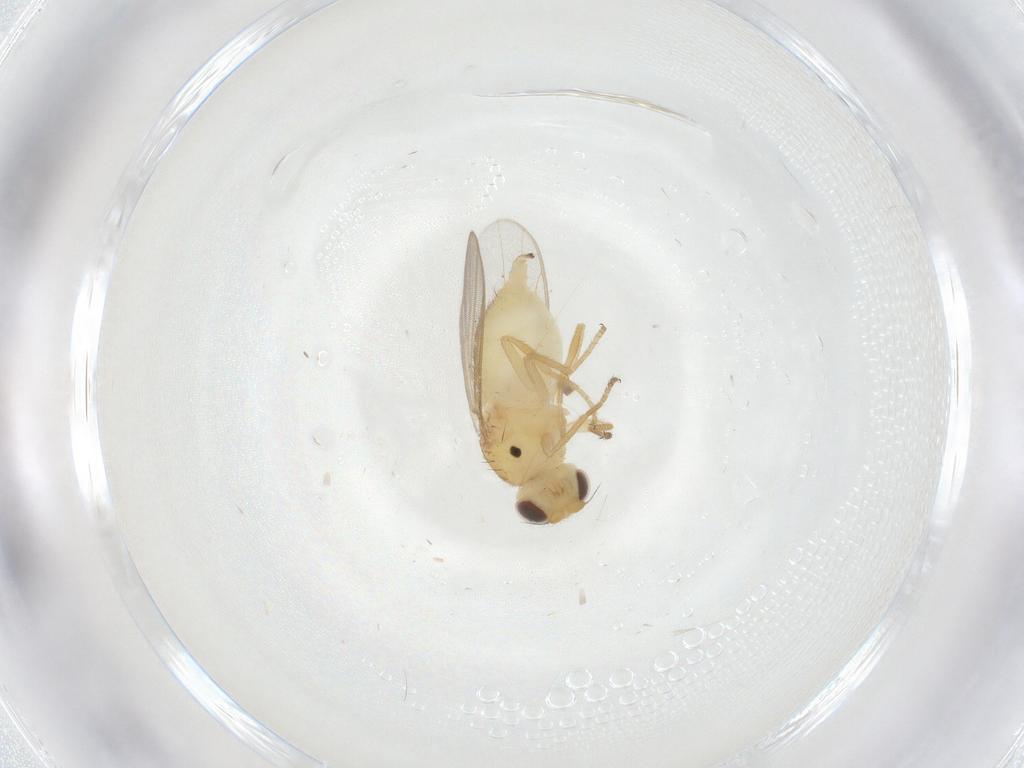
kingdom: Animalia
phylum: Arthropoda
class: Insecta
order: Diptera
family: Chloropidae
